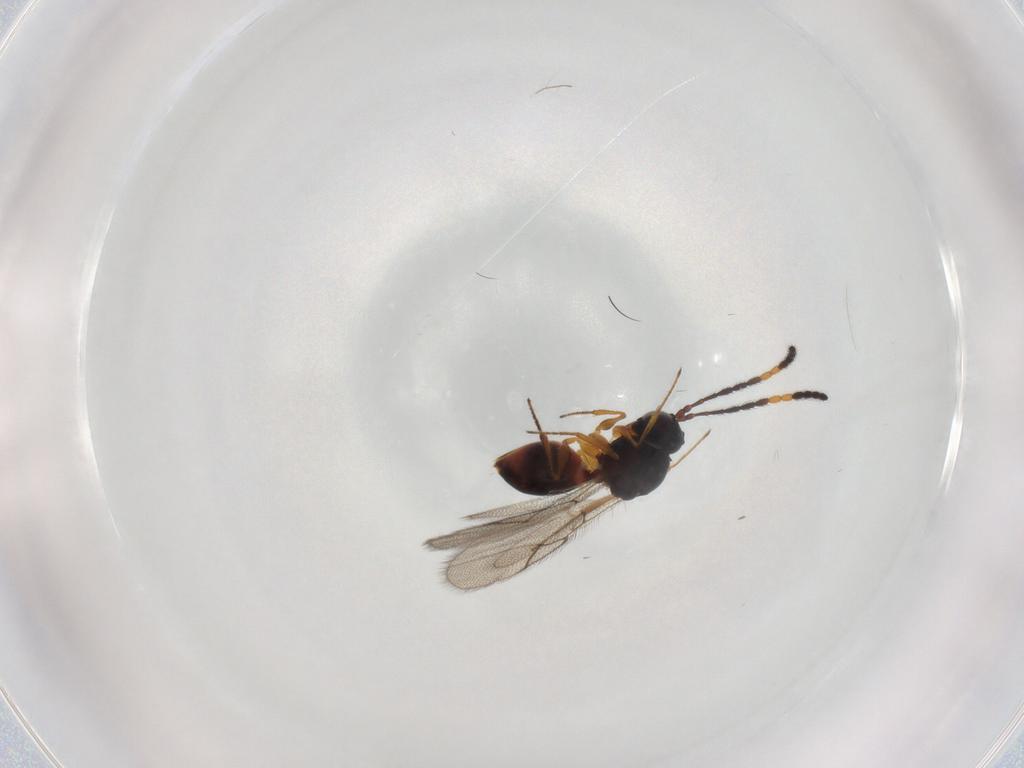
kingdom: Animalia
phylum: Arthropoda
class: Insecta
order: Hymenoptera
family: Figitidae
